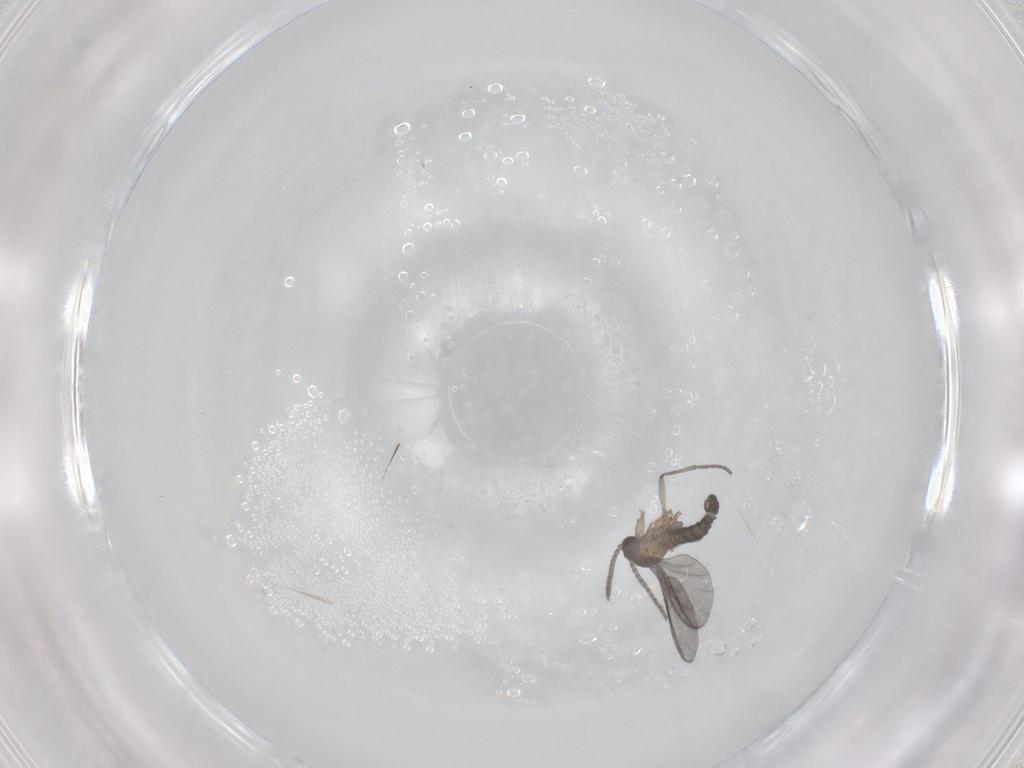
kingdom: Animalia
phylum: Arthropoda
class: Insecta
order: Diptera
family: Sciaridae
